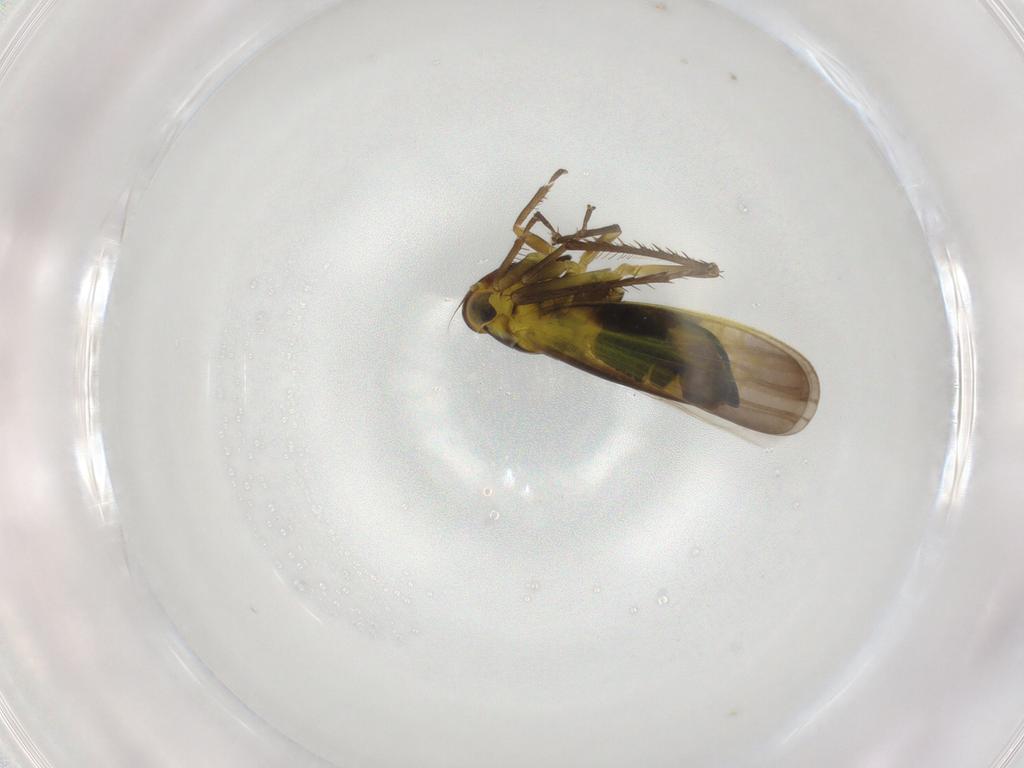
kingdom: Animalia
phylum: Arthropoda
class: Insecta
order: Hemiptera
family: Cicadellidae
